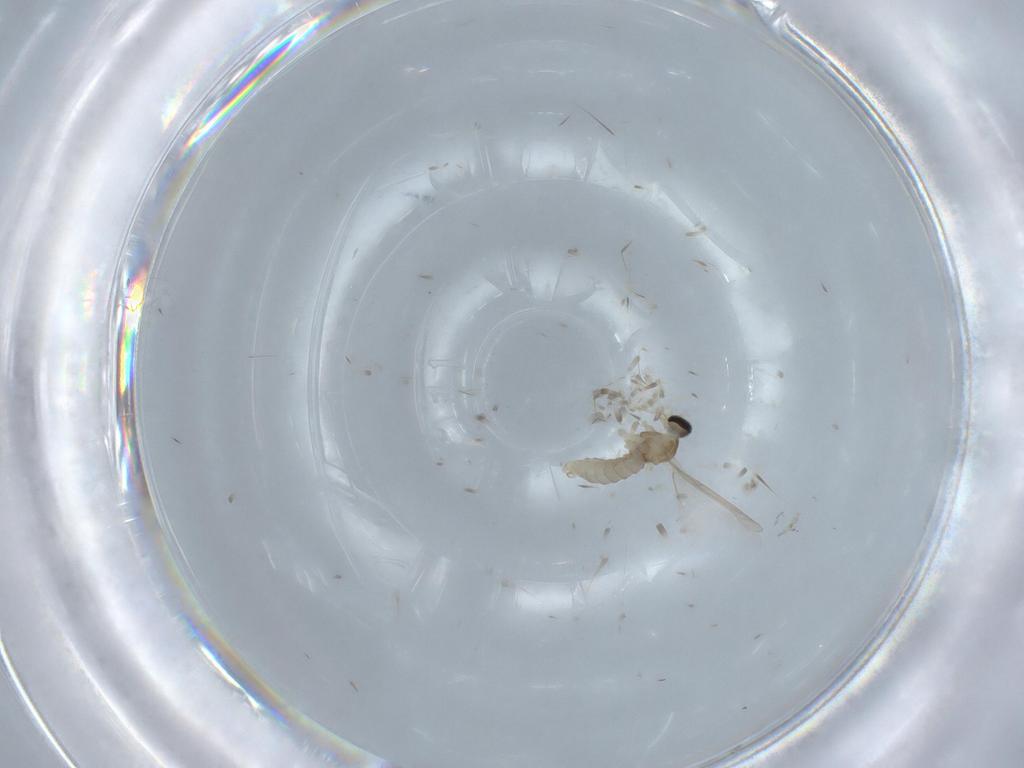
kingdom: Animalia
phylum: Arthropoda
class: Insecta
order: Diptera
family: Cecidomyiidae
